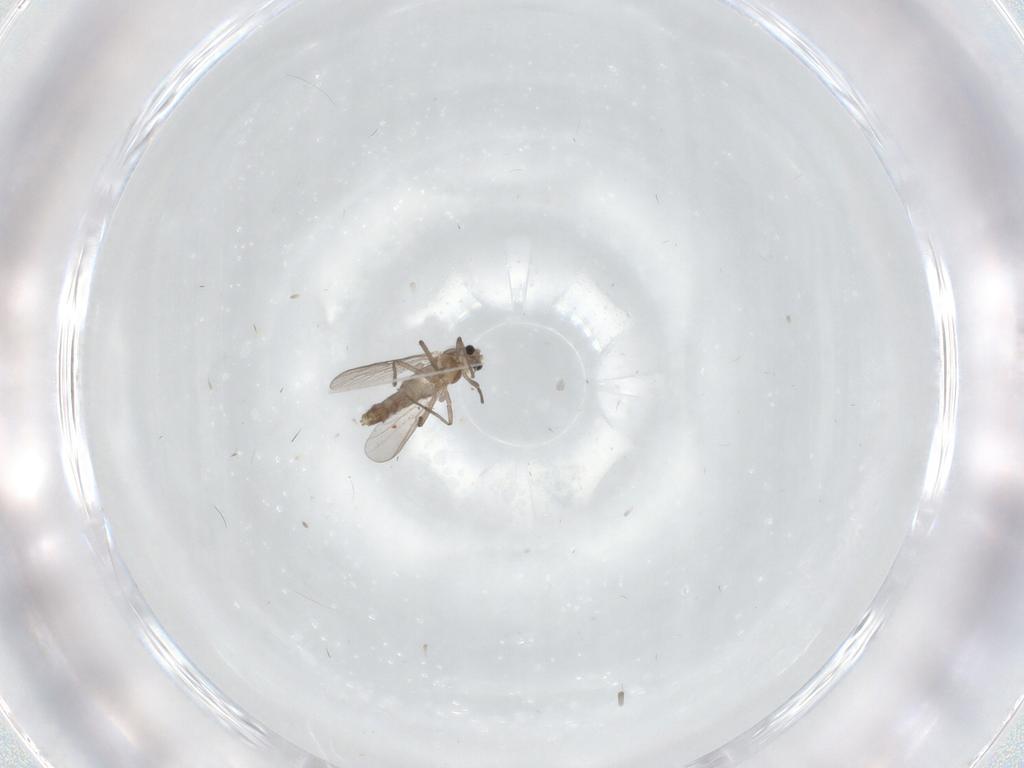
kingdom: Animalia
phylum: Arthropoda
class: Insecta
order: Diptera
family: Chironomidae
